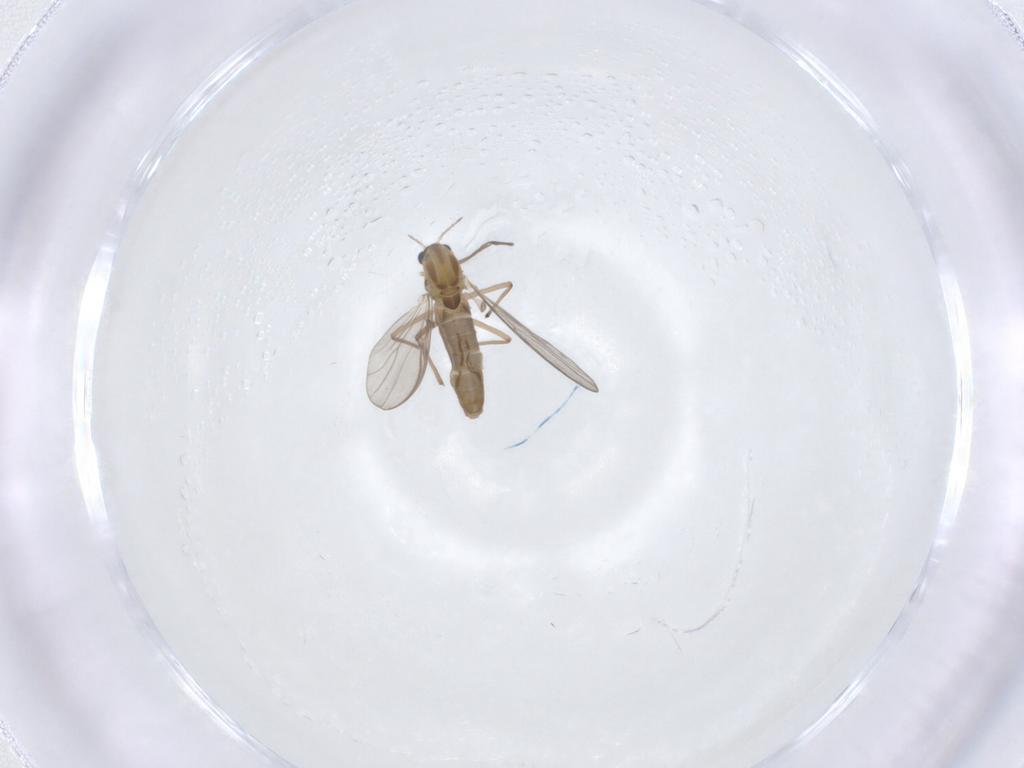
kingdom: Animalia
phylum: Arthropoda
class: Insecta
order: Diptera
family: Chironomidae
